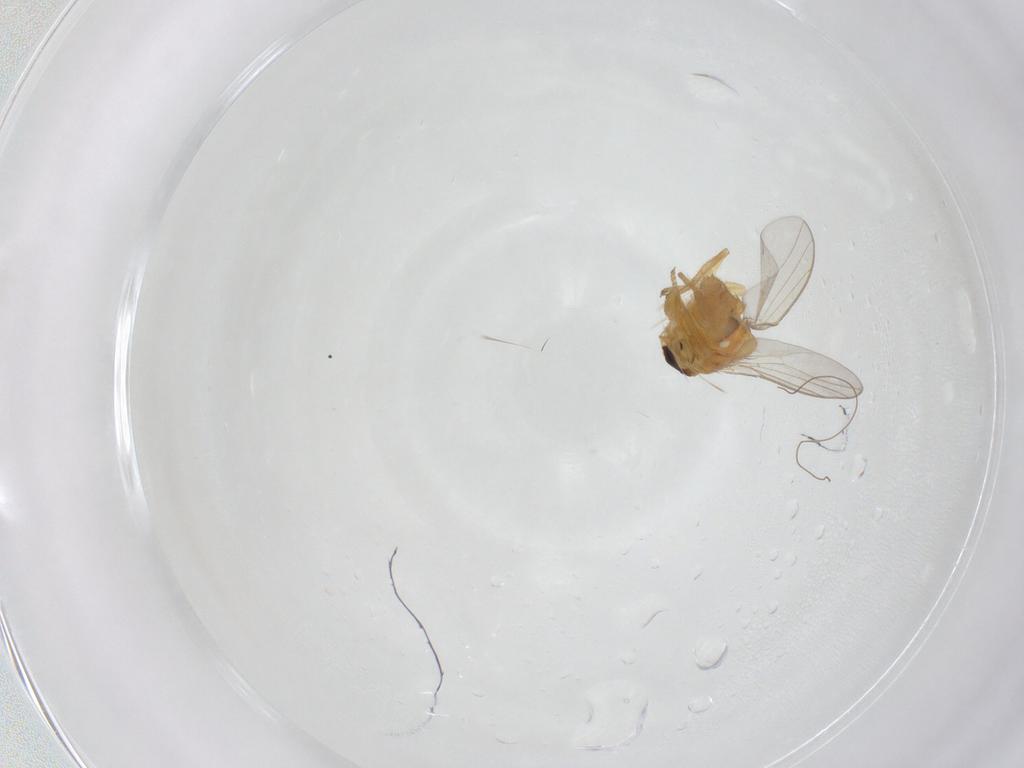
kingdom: Animalia
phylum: Arthropoda
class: Insecta
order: Diptera
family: Chloropidae
